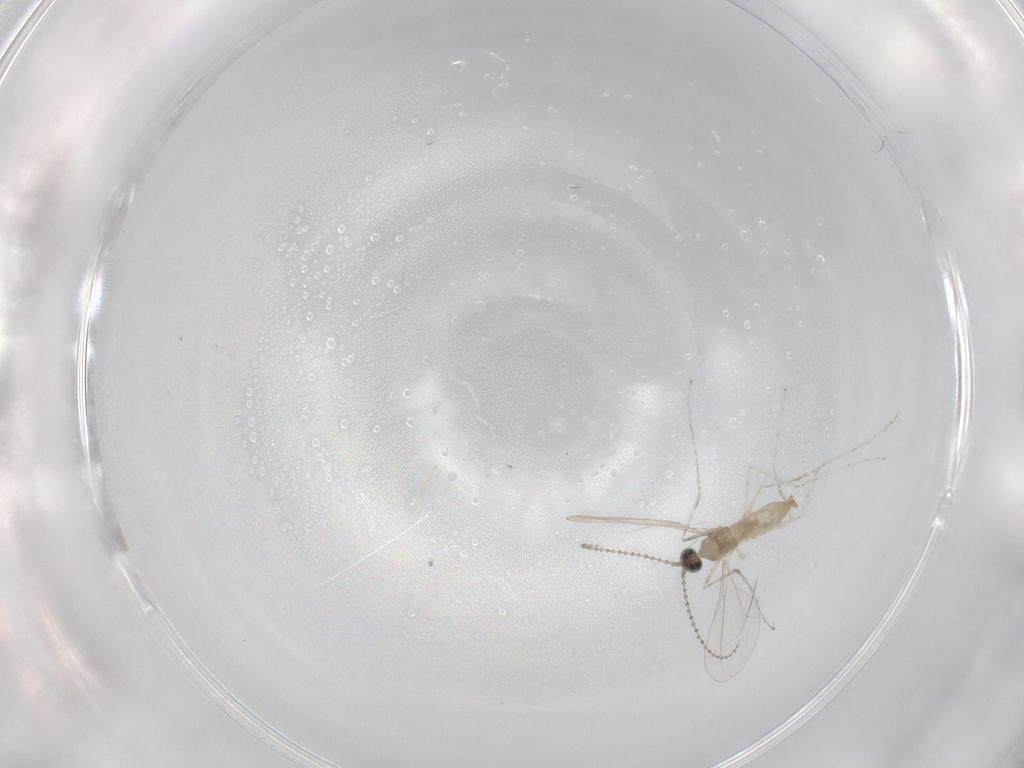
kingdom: Animalia
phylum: Arthropoda
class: Insecta
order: Diptera
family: Cecidomyiidae
